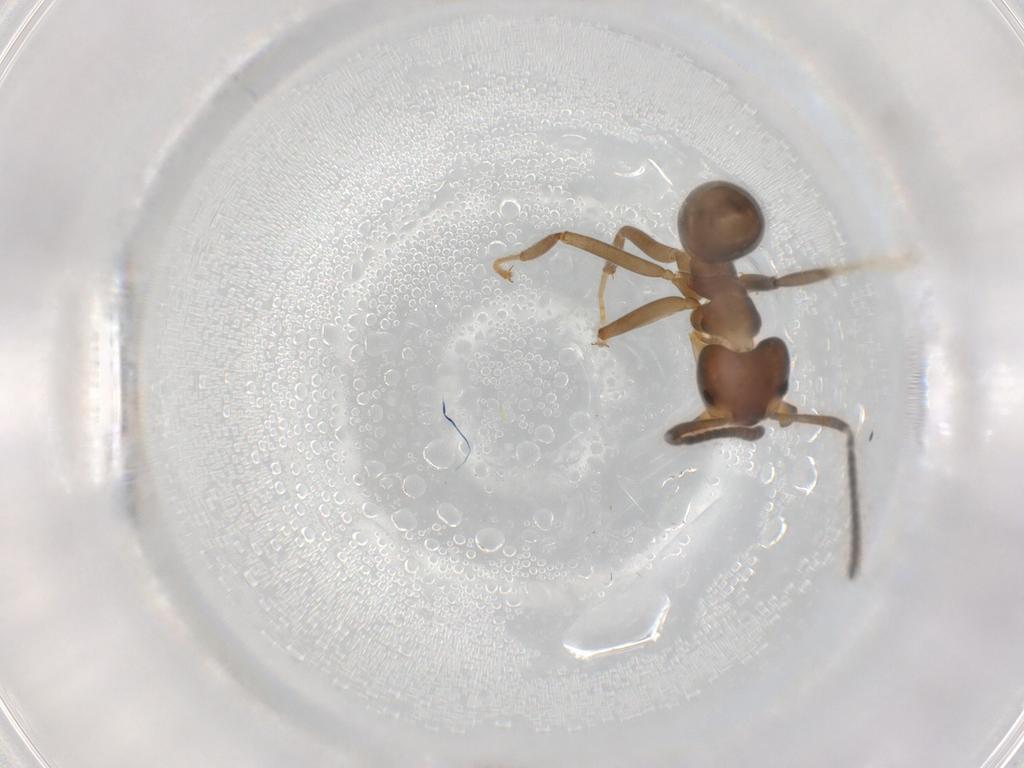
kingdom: Animalia
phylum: Arthropoda
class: Insecta
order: Hymenoptera
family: Formicidae
